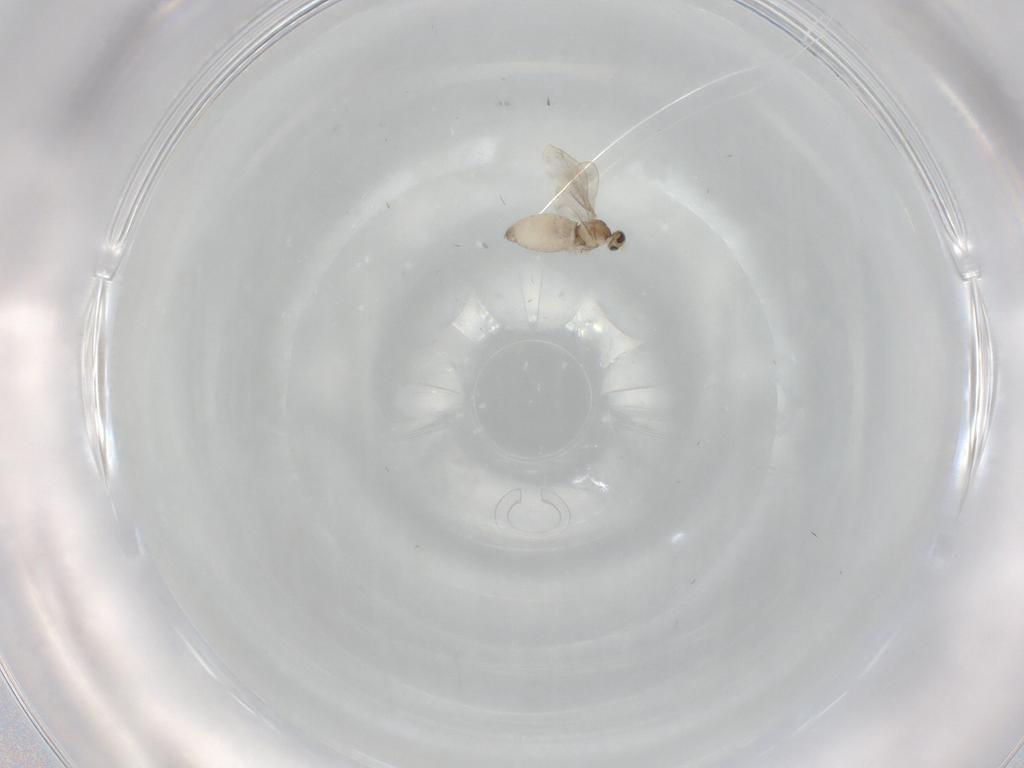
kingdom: Animalia
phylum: Arthropoda
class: Insecta
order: Diptera
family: Cecidomyiidae
